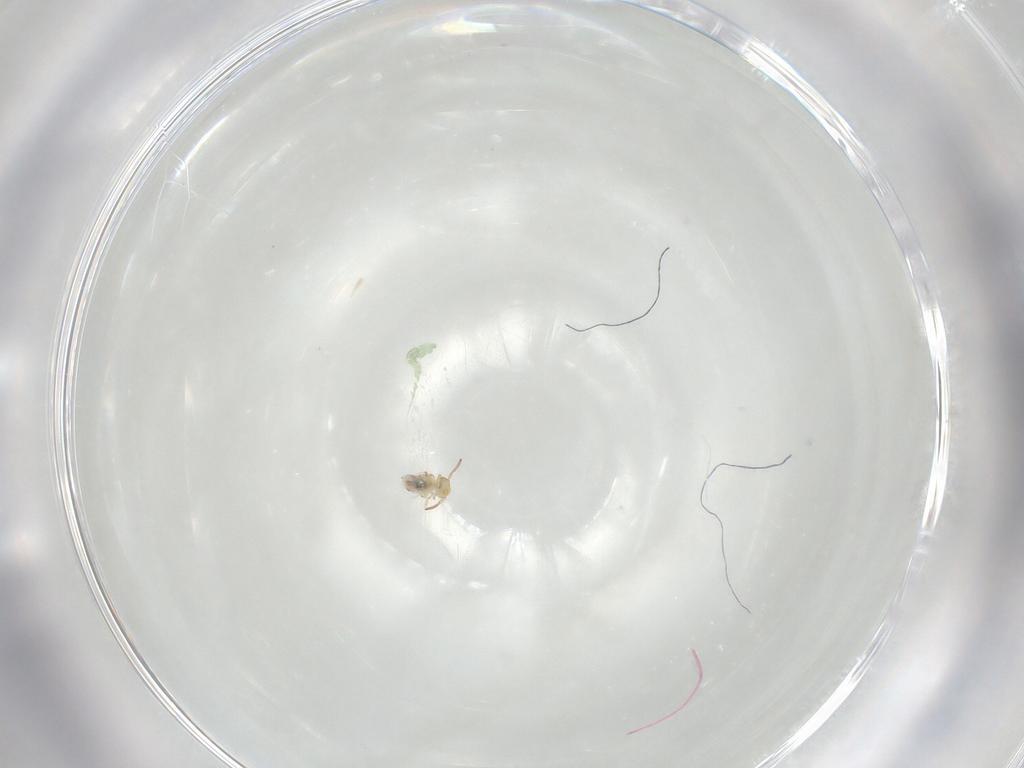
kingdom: Animalia
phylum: Arthropoda
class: Collembola
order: Symphypleona
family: Bourletiellidae
